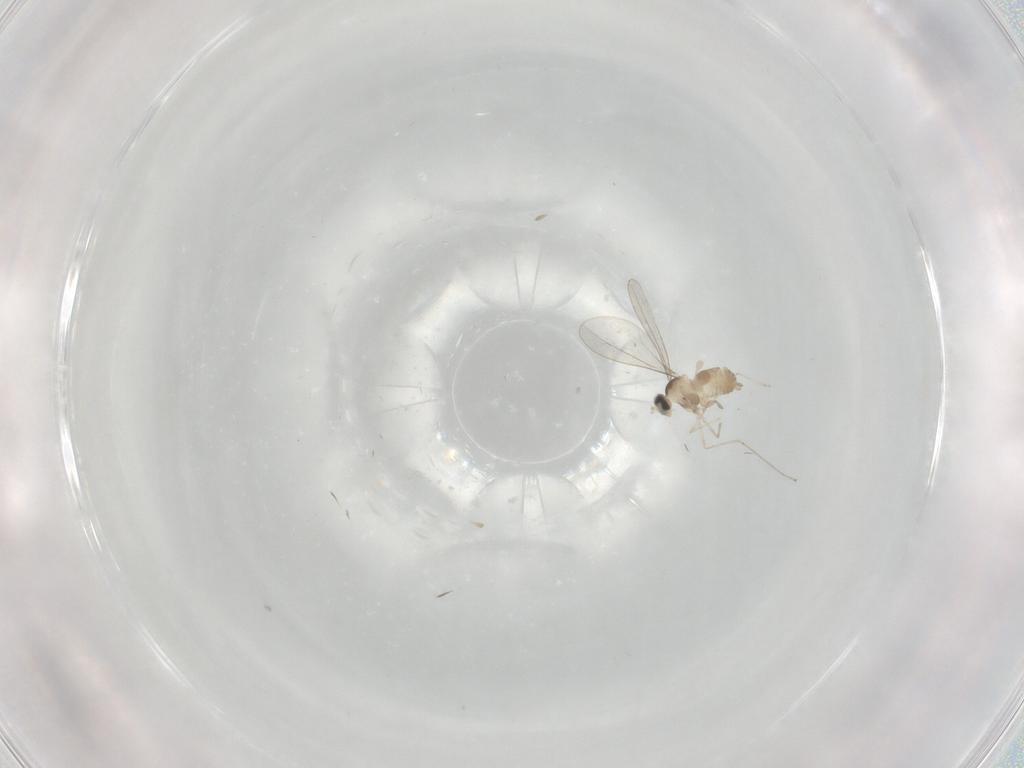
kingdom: Animalia
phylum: Arthropoda
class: Insecta
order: Diptera
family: Cecidomyiidae
